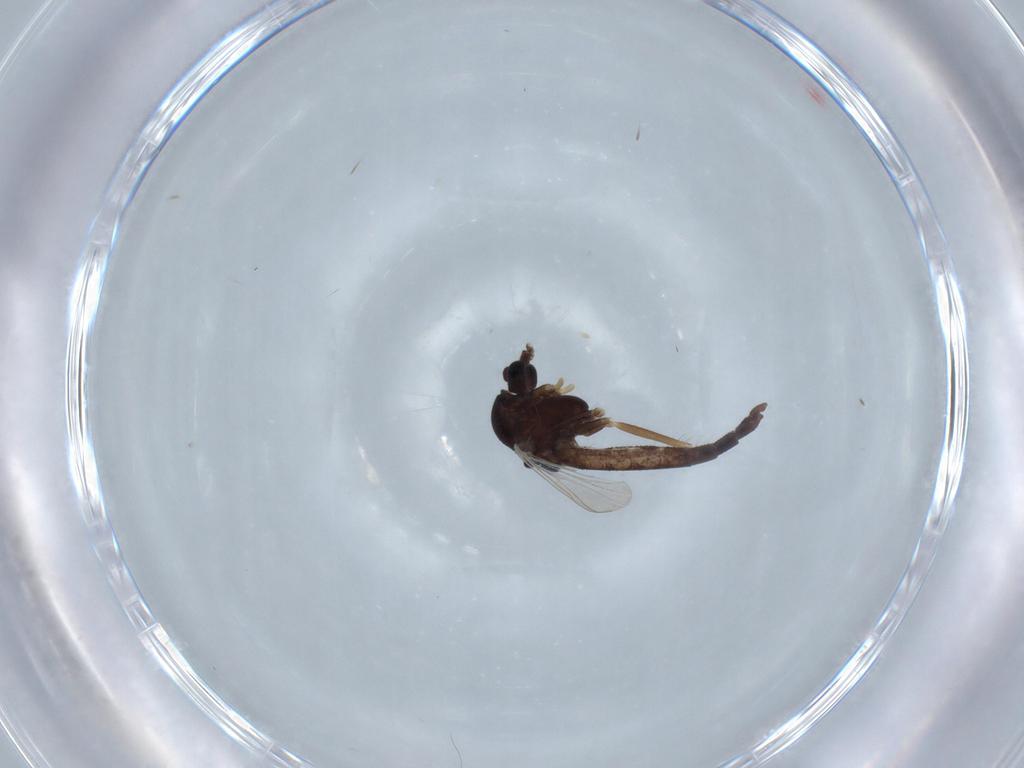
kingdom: Animalia
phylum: Arthropoda
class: Insecta
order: Diptera
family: Chironomidae
